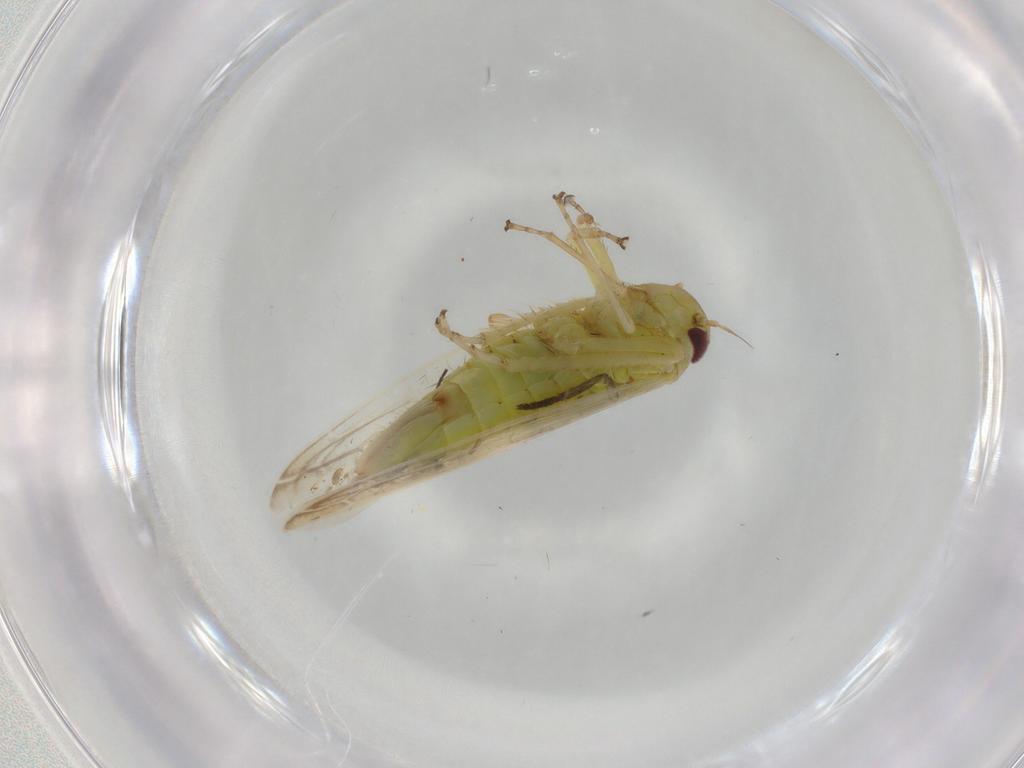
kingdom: Animalia
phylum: Arthropoda
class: Insecta
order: Hemiptera
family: Cicadellidae
